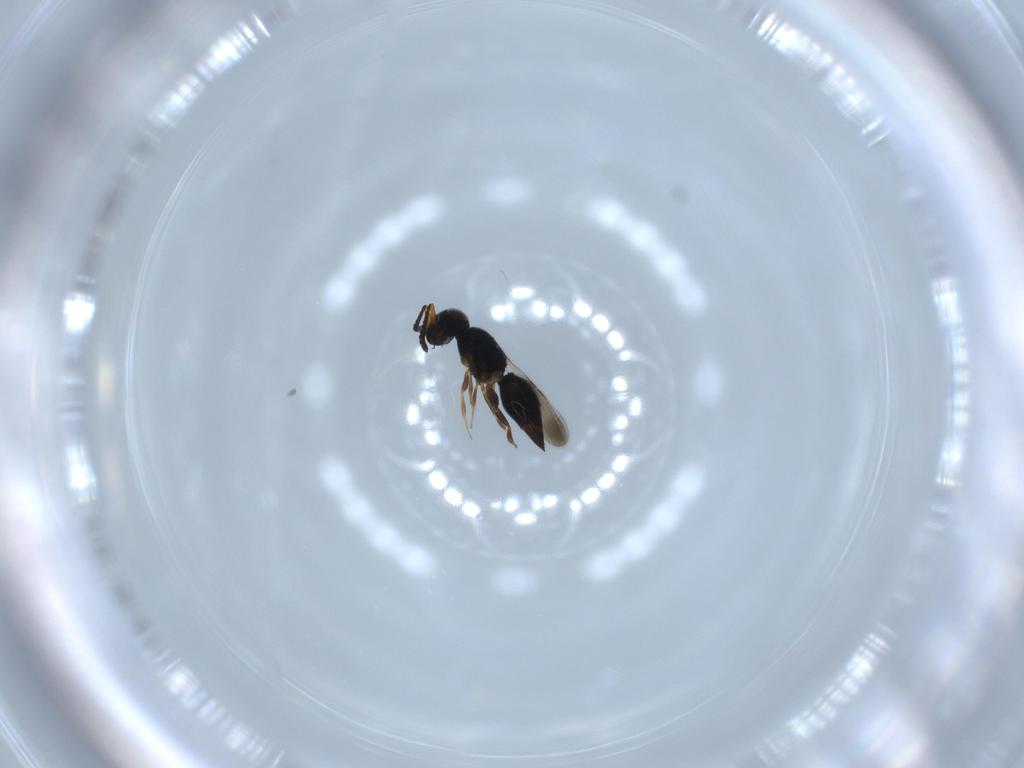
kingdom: Animalia
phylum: Arthropoda
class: Insecta
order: Hymenoptera
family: Ceraphronidae
